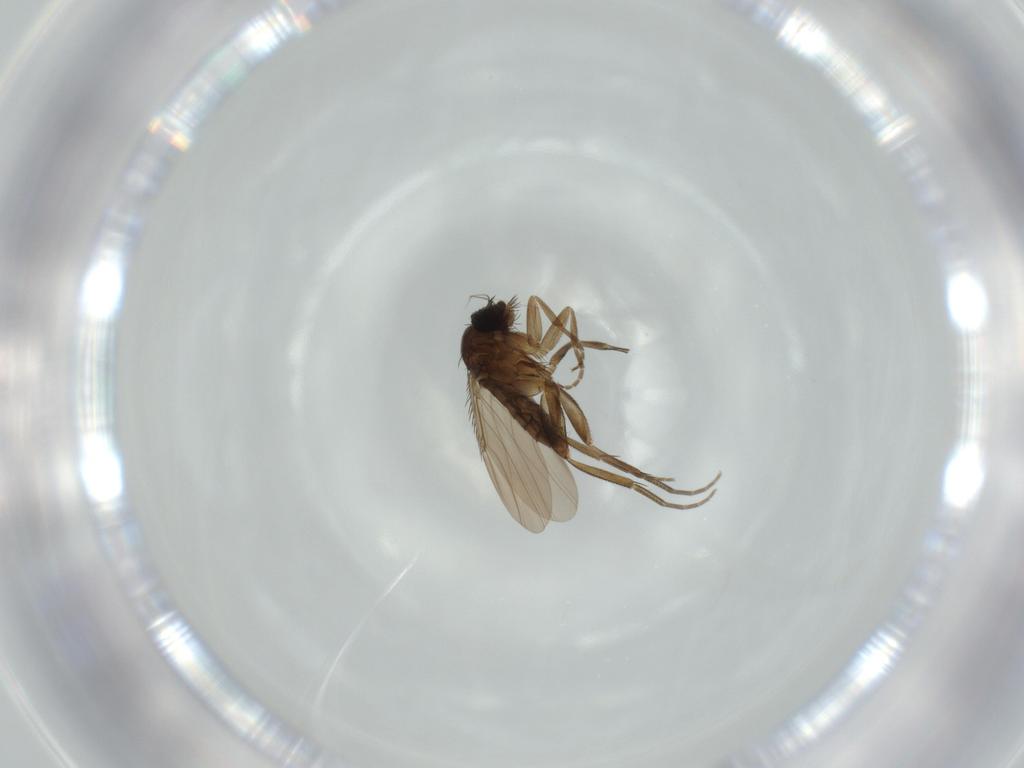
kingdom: Animalia
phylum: Arthropoda
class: Insecta
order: Diptera
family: Phoridae
